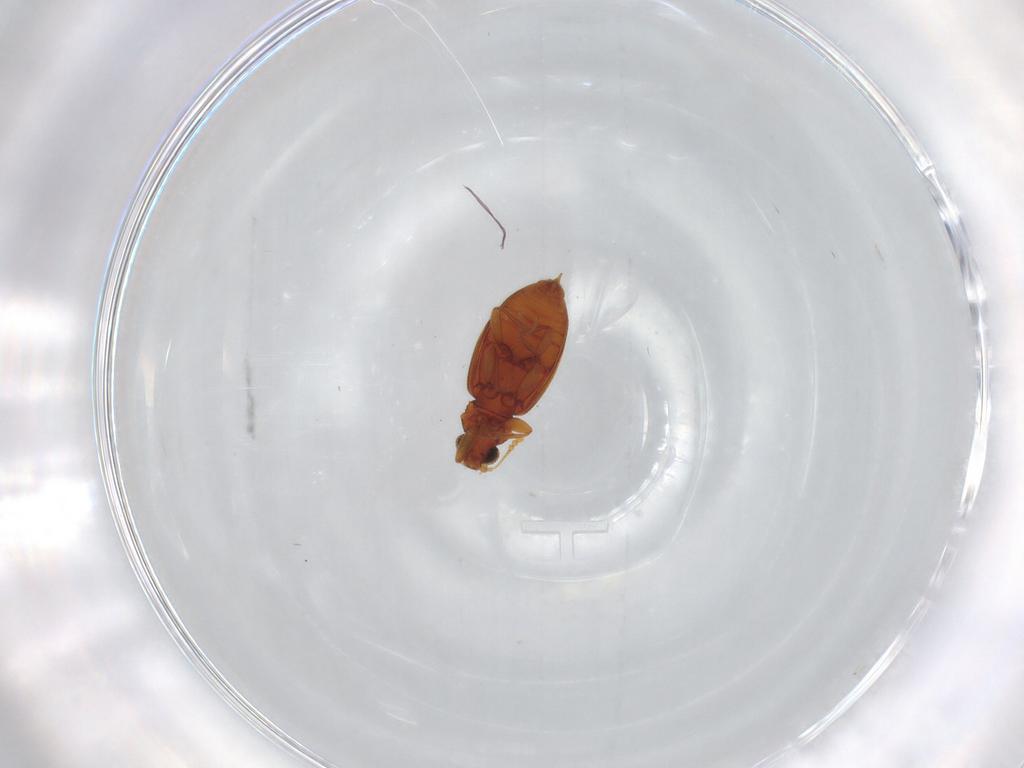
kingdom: Animalia
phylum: Arthropoda
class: Insecta
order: Coleoptera
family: Latridiidae
